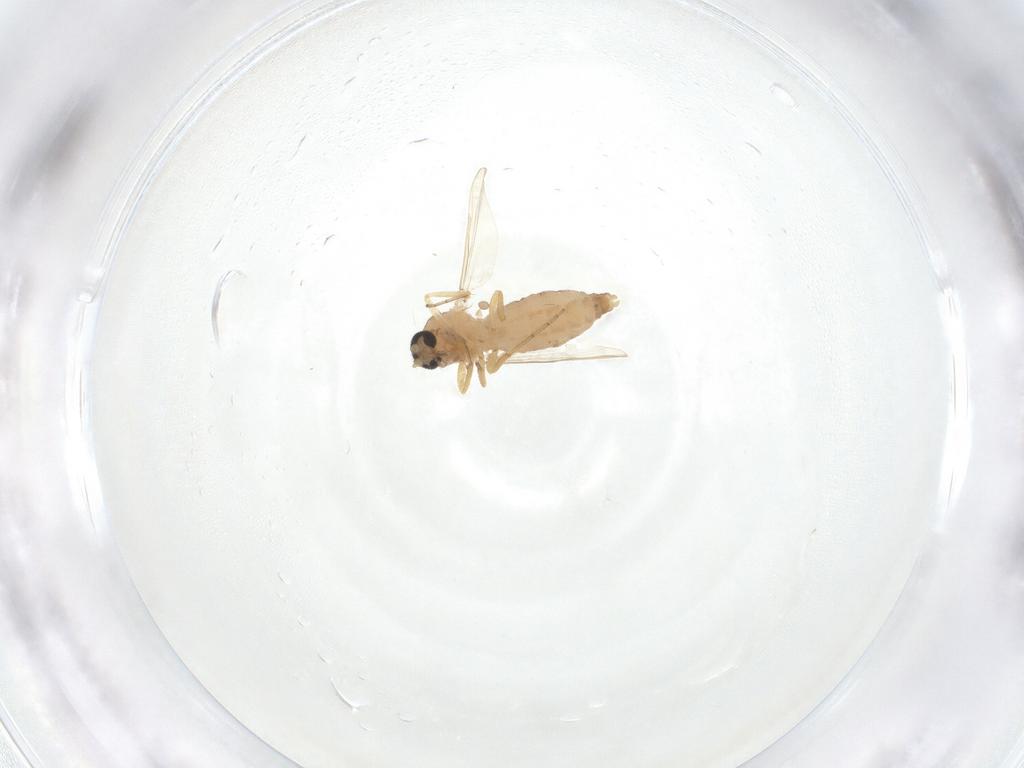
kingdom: Animalia
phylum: Arthropoda
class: Insecta
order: Diptera
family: Ceratopogonidae
